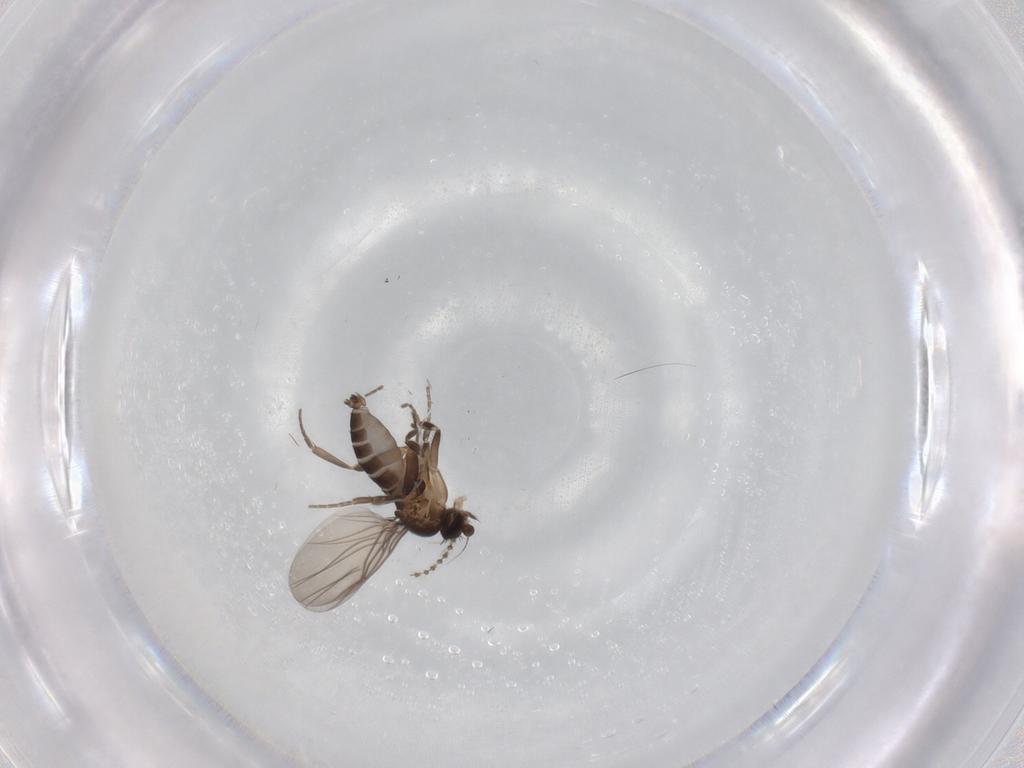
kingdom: Animalia
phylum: Arthropoda
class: Insecta
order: Diptera
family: Phoridae
